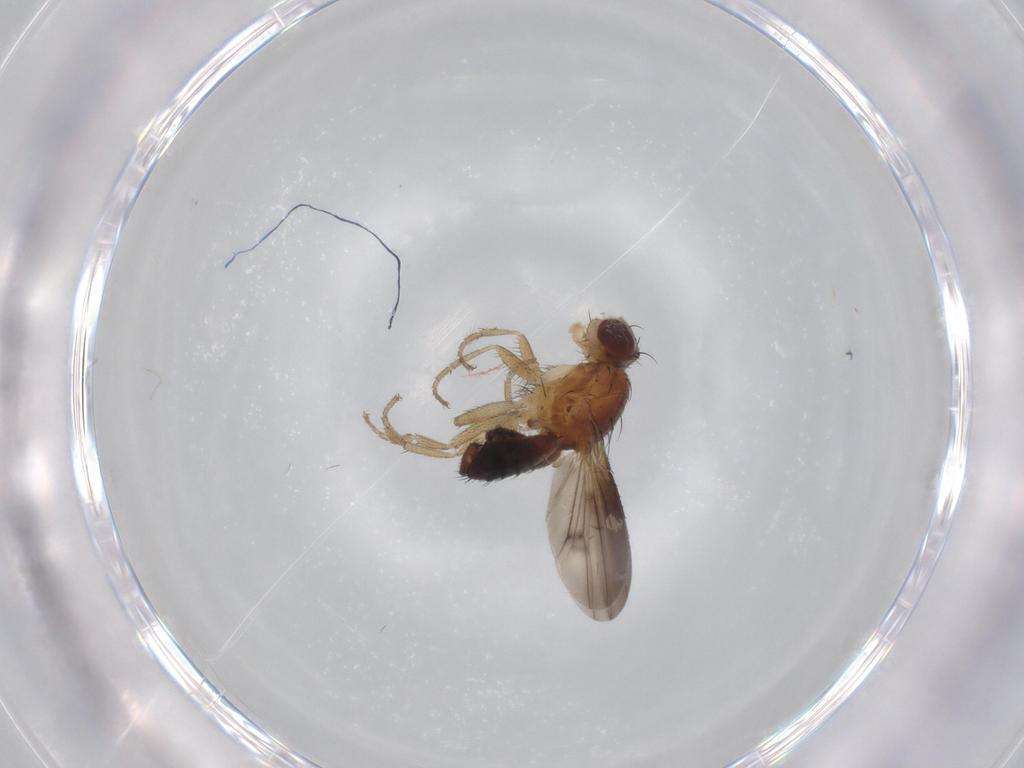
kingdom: Animalia
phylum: Arthropoda
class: Insecta
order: Diptera
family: Heleomyzidae
